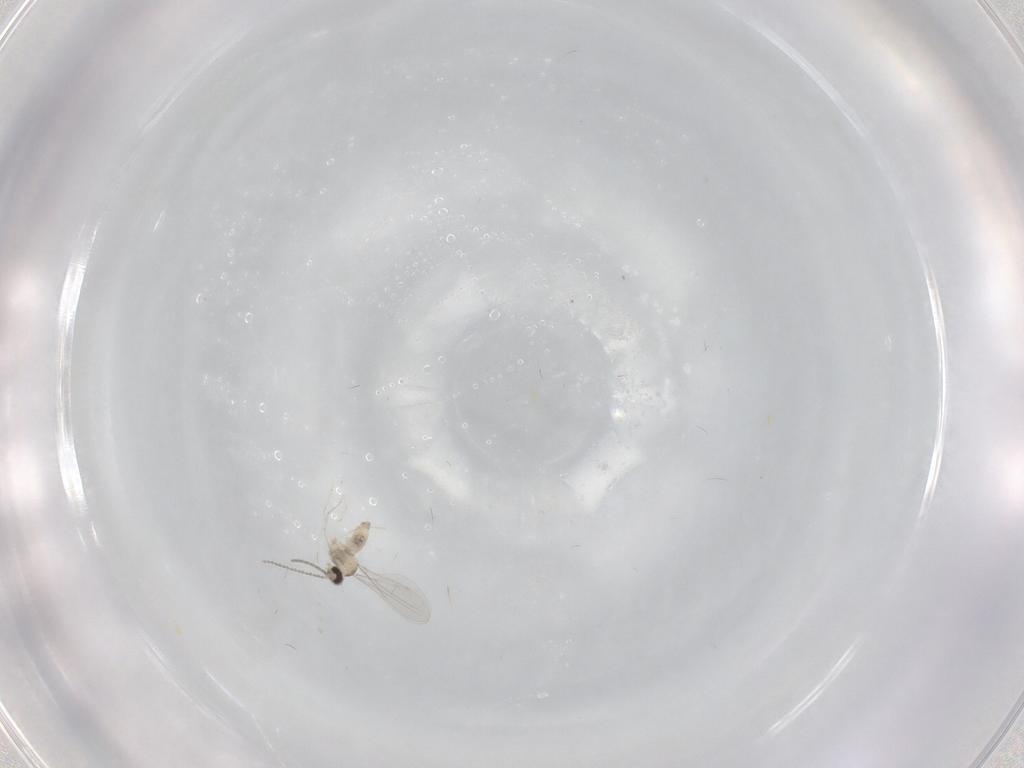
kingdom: Animalia
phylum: Arthropoda
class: Insecta
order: Diptera
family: Cecidomyiidae
